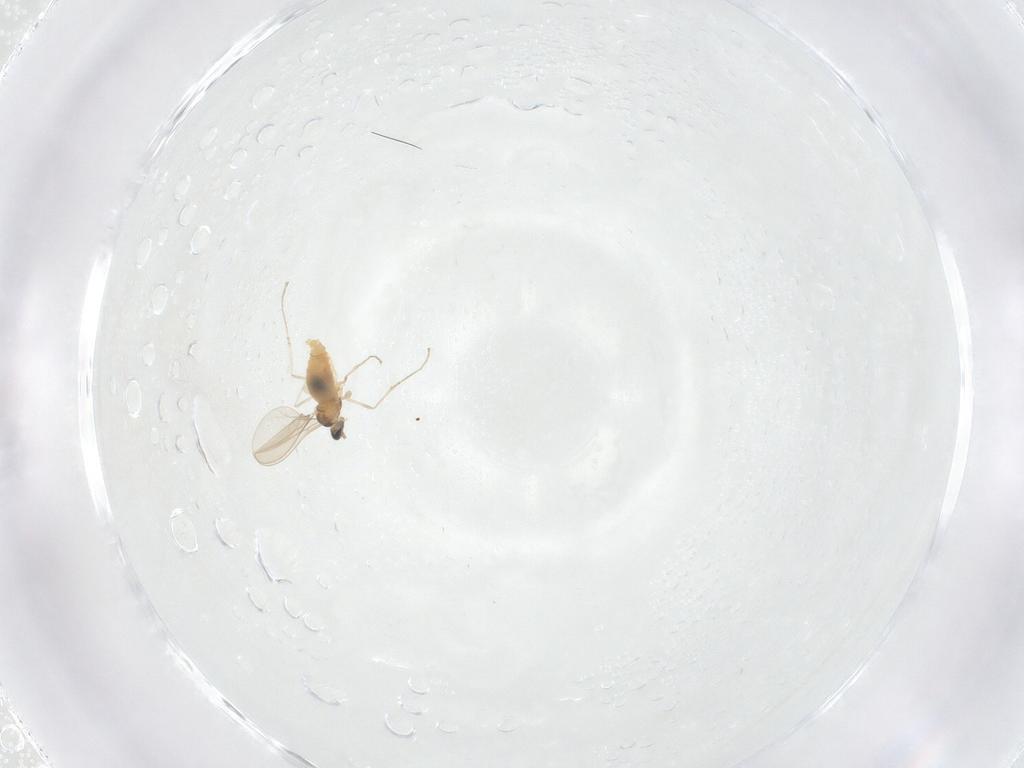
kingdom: Animalia
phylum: Arthropoda
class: Insecta
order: Diptera
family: Cecidomyiidae
